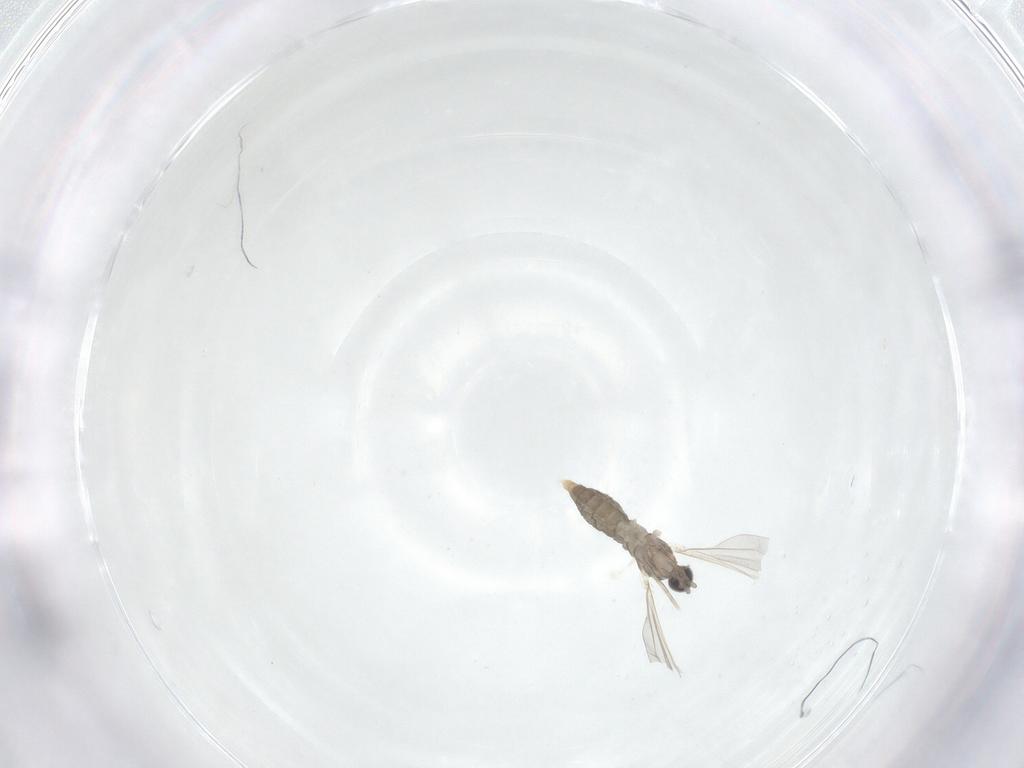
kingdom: Animalia
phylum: Arthropoda
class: Insecta
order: Diptera
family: Cecidomyiidae
